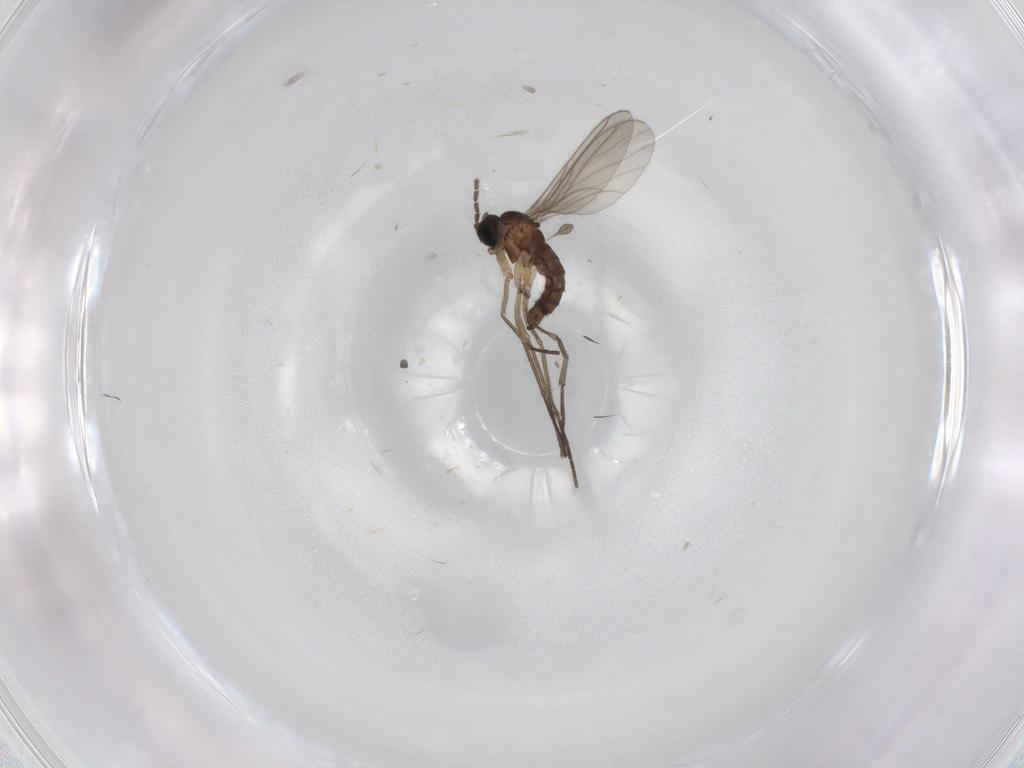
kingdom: Animalia
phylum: Arthropoda
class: Insecta
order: Diptera
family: Sciaridae
